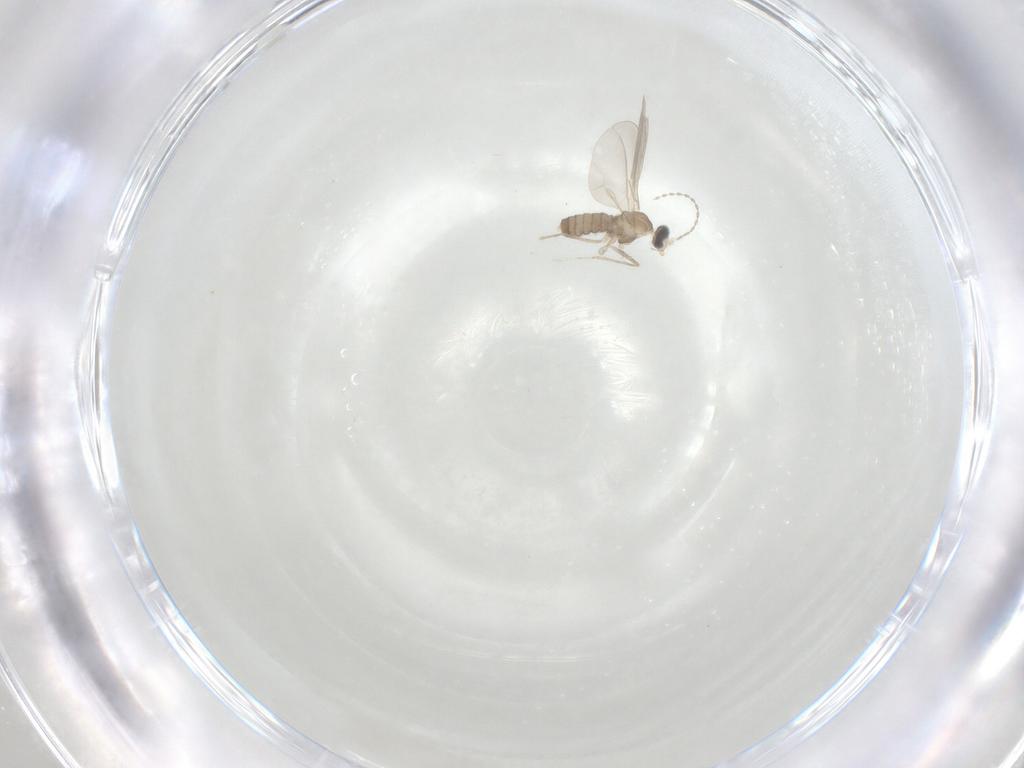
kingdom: Animalia
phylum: Arthropoda
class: Insecta
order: Diptera
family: Cecidomyiidae
